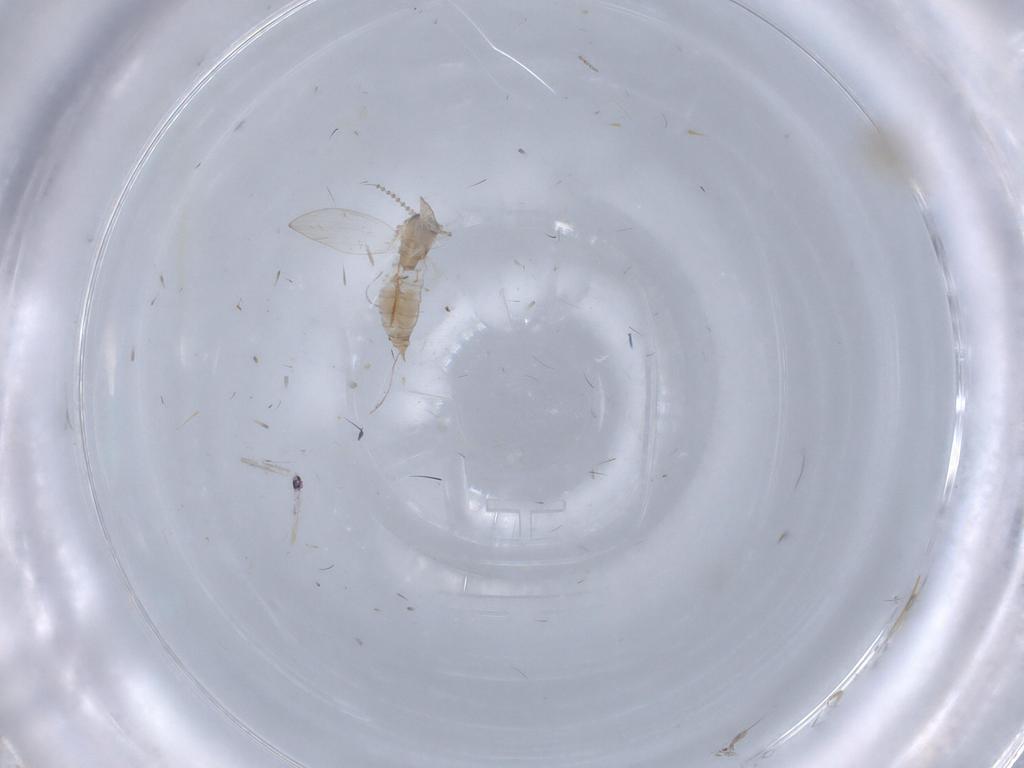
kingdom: Animalia
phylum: Arthropoda
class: Insecta
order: Diptera
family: Psychodidae
